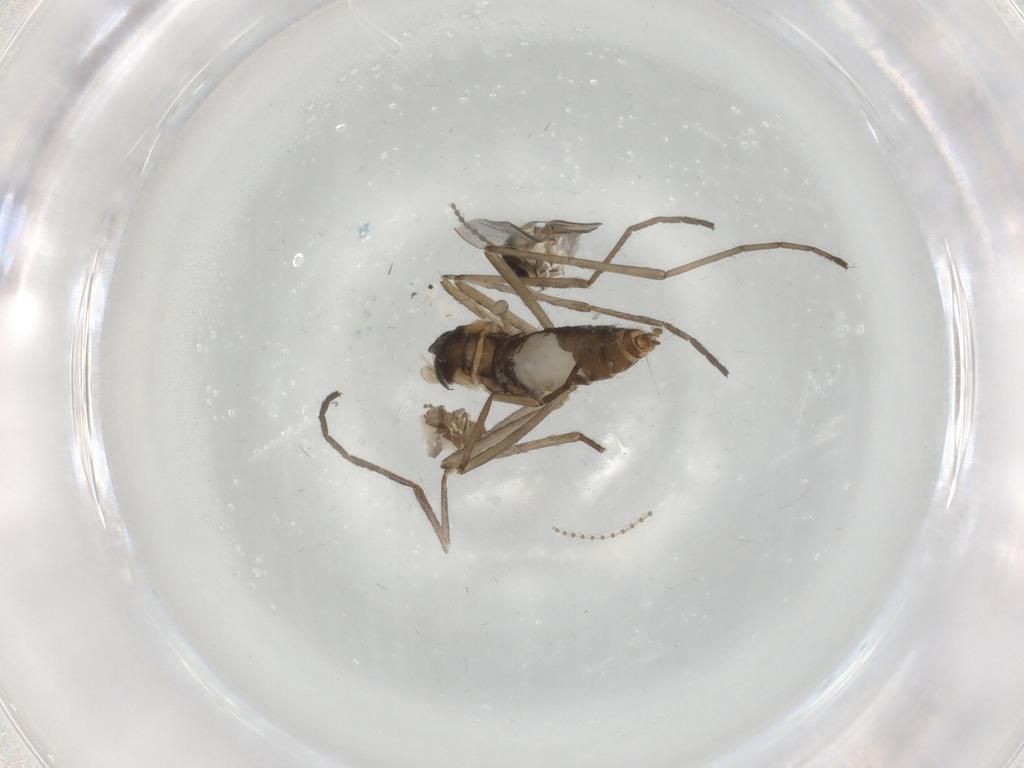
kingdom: Animalia
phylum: Arthropoda
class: Insecta
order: Diptera
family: Cecidomyiidae
